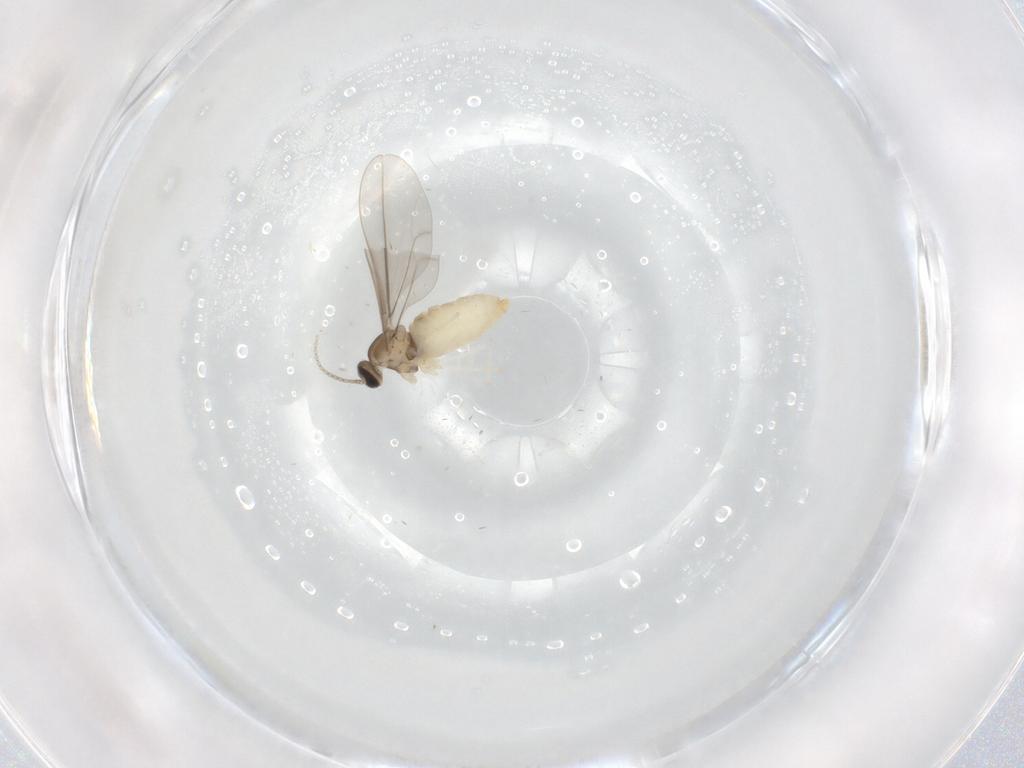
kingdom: Animalia
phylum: Arthropoda
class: Insecta
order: Diptera
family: Cecidomyiidae
